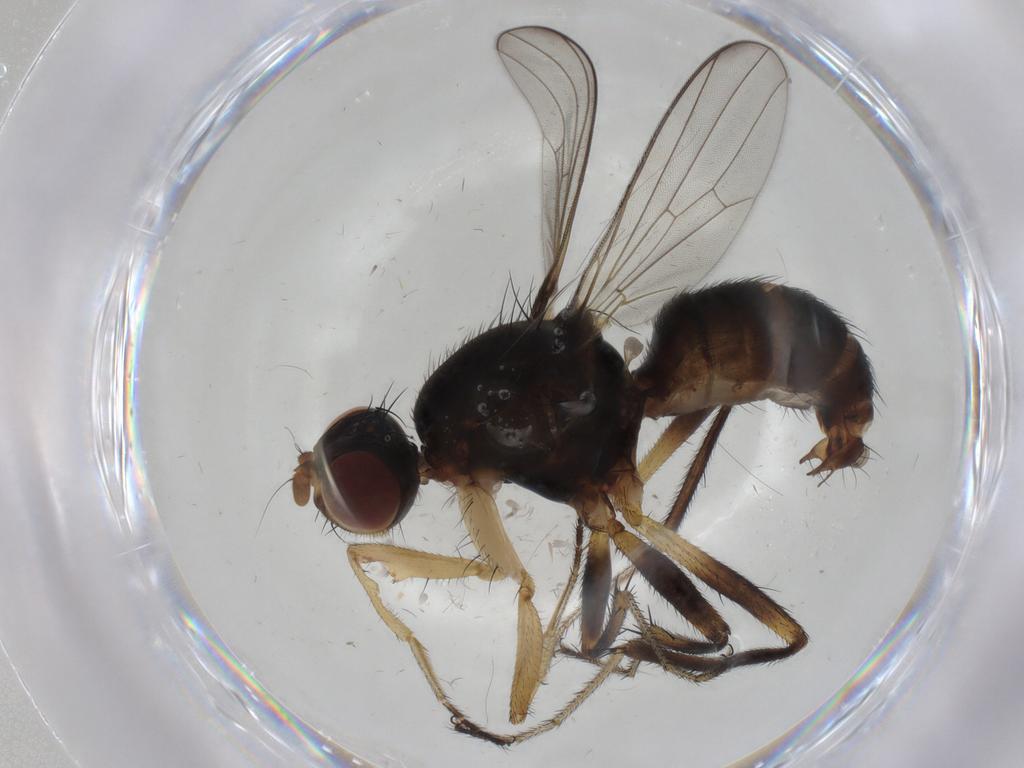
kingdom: Animalia
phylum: Arthropoda
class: Insecta
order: Diptera
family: Sepsidae
